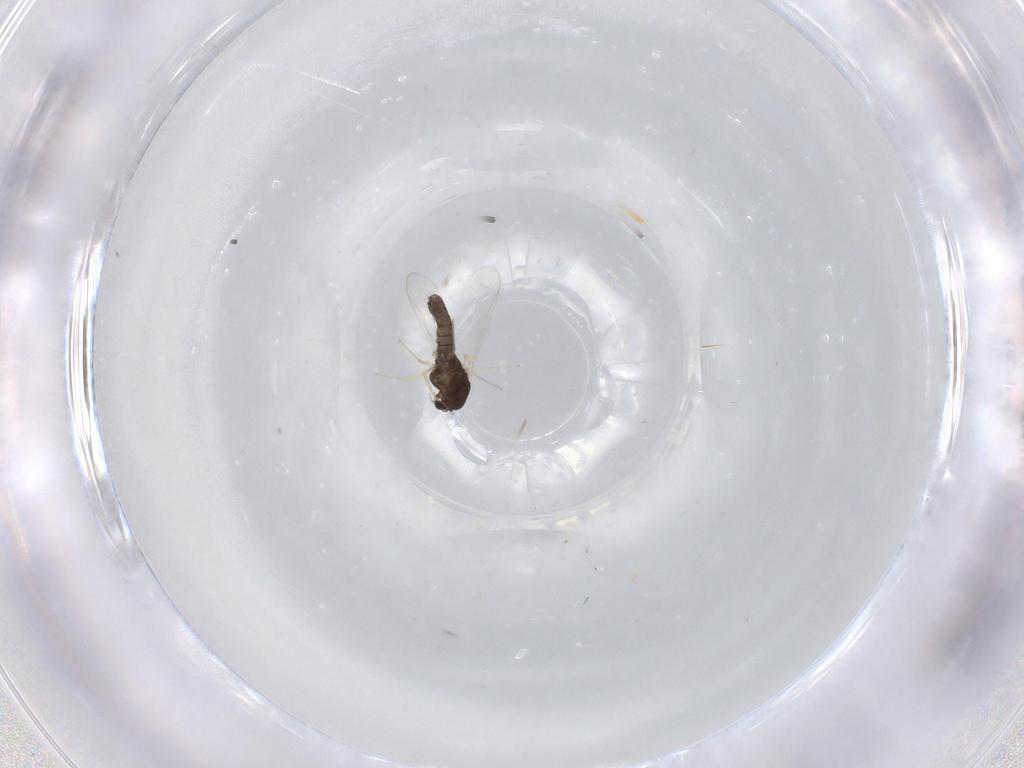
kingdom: Animalia
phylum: Arthropoda
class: Insecta
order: Diptera
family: Chironomidae
